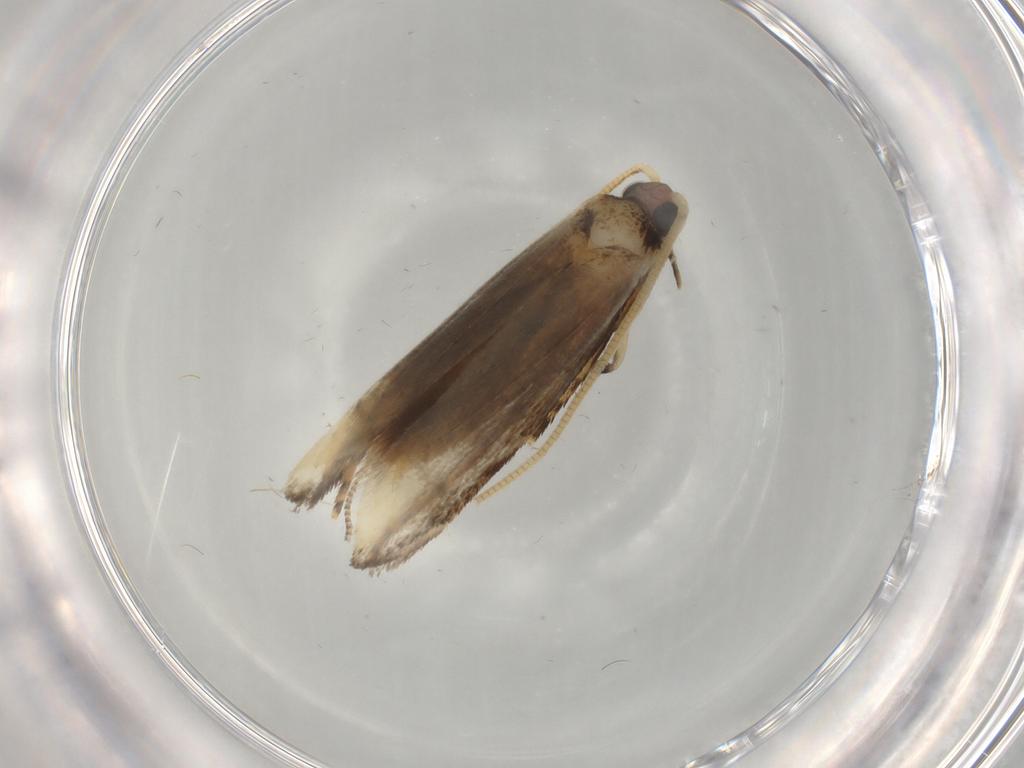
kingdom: Animalia
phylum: Arthropoda
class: Insecta
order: Lepidoptera
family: Tineidae
